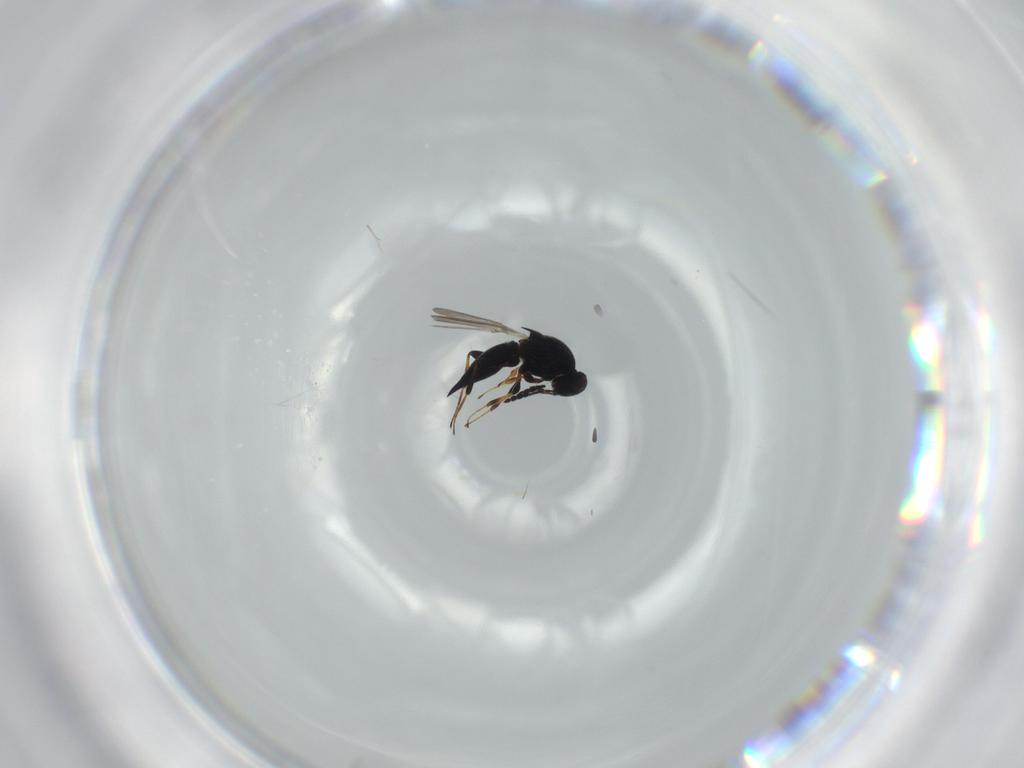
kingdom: Animalia
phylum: Arthropoda
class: Insecta
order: Hymenoptera
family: Platygastridae
